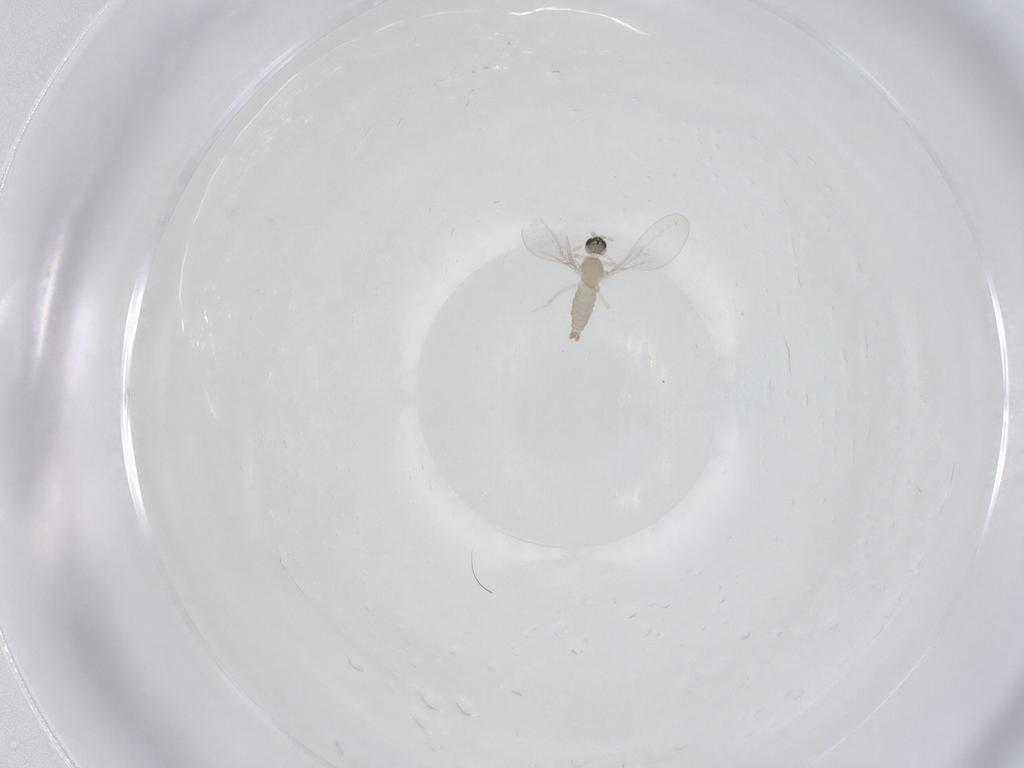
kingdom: Animalia
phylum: Arthropoda
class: Insecta
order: Diptera
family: Cecidomyiidae
